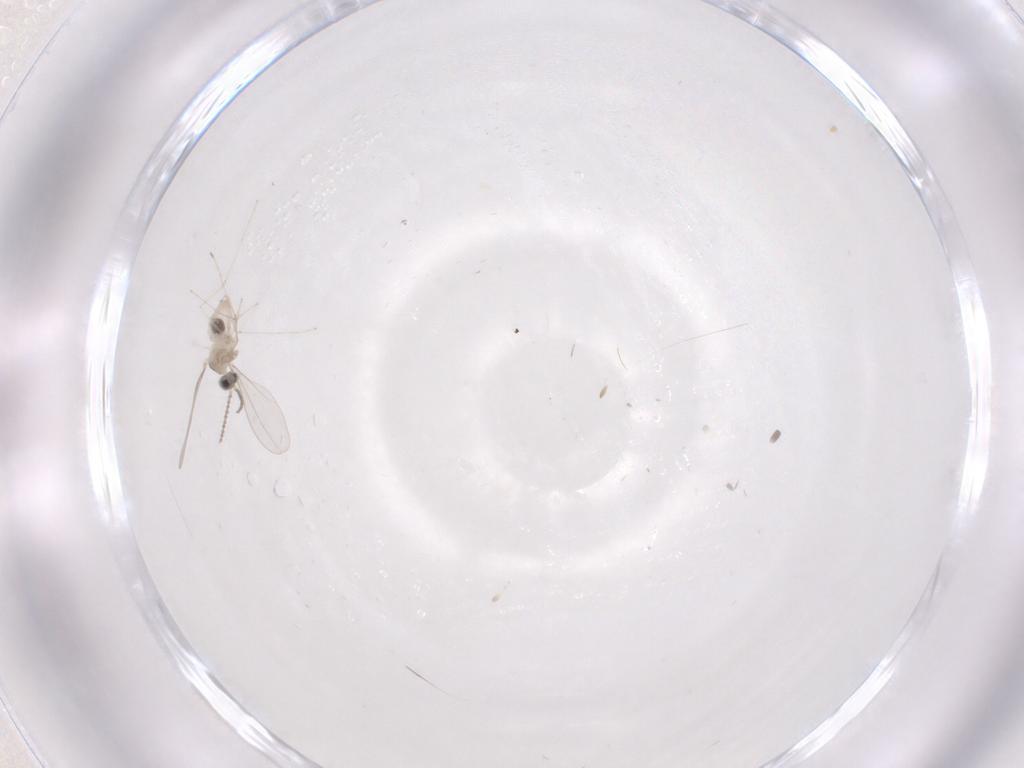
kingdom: Animalia
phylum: Arthropoda
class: Insecta
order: Diptera
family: Cecidomyiidae
